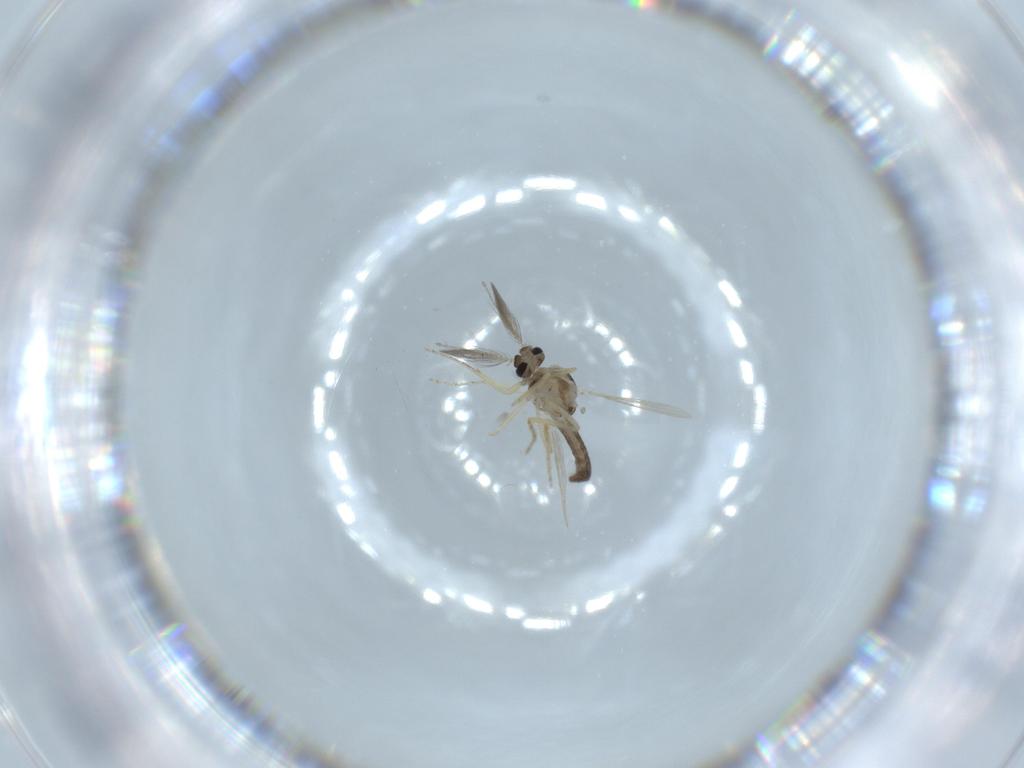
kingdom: Animalia
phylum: Arthropoda
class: Insecta
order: Diptera
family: Ceratopogonidae
